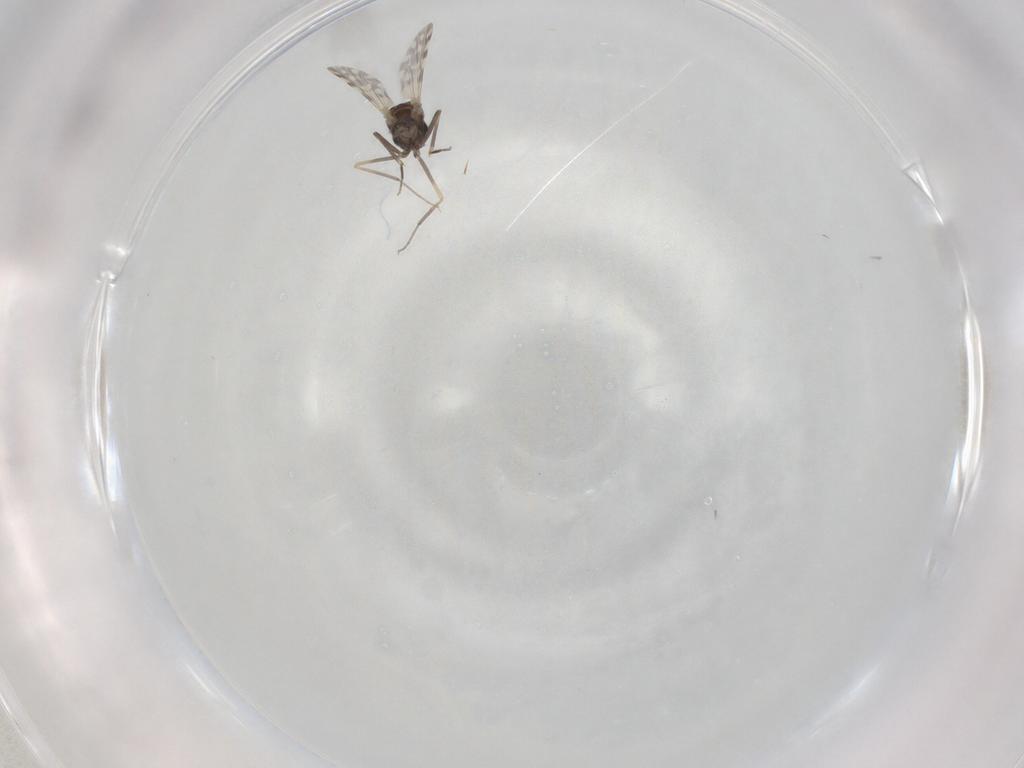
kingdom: Animalia
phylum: Arthropoda
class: Insecta
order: Diptera
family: Ceratopogonidae
